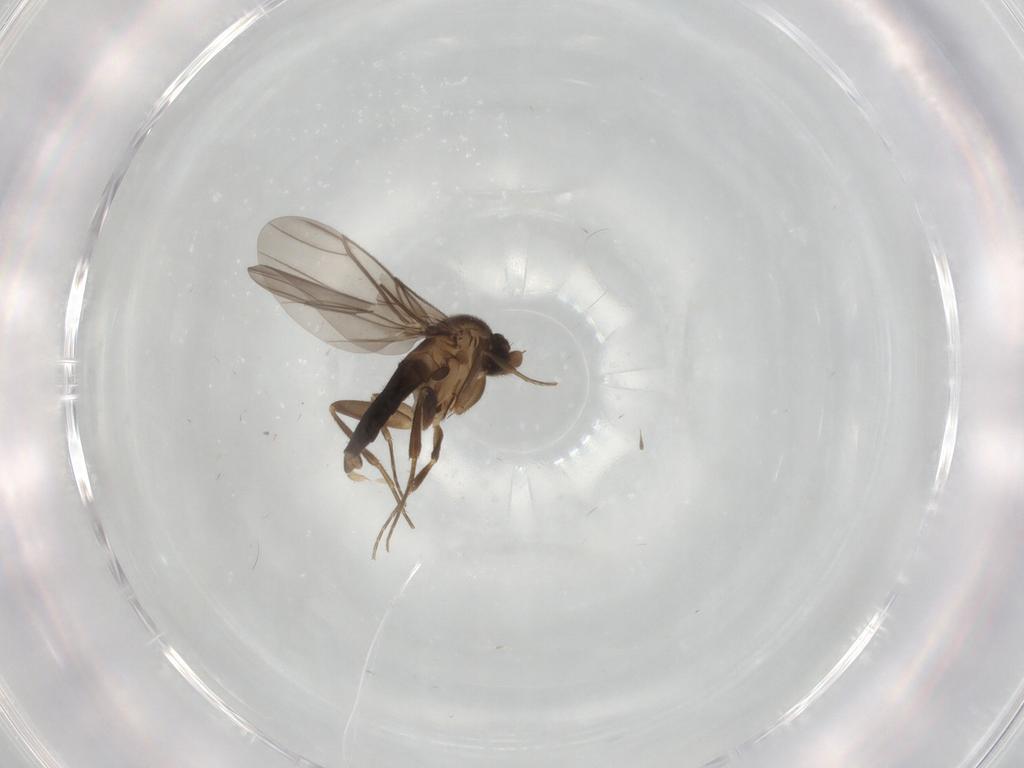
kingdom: Animalia
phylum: Arthropoda
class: Insecta
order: Diptera
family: Phoridae
